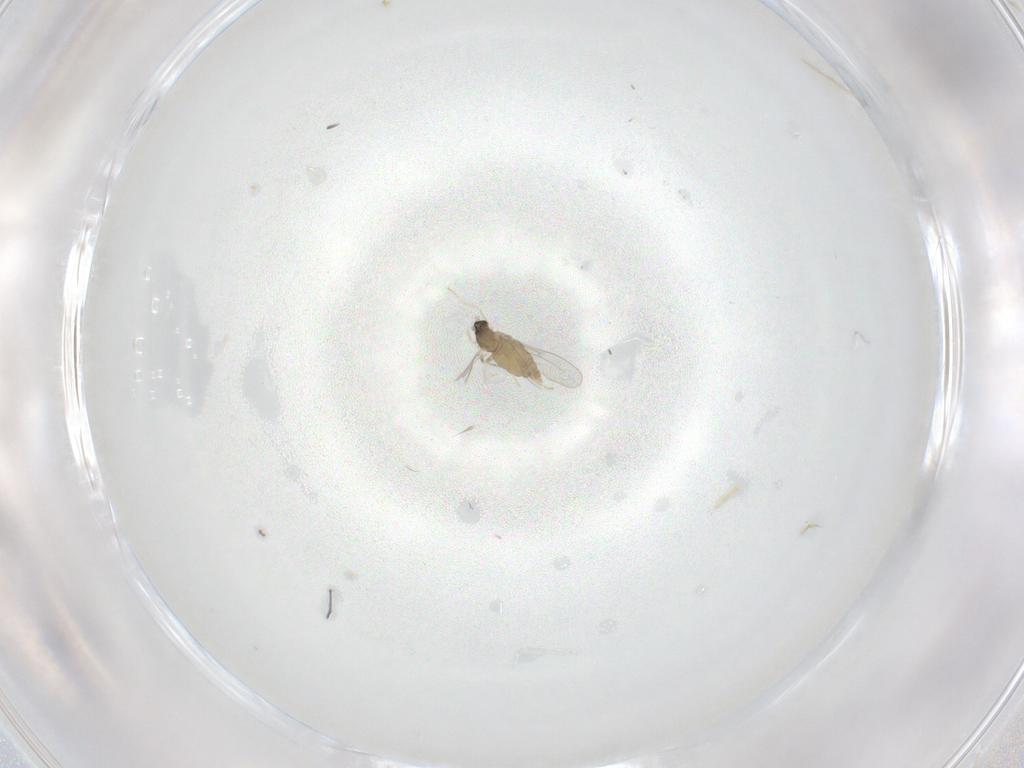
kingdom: Animalia
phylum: Arthropoda
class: Insecta
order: Diptera
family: Cecidomyiidae
